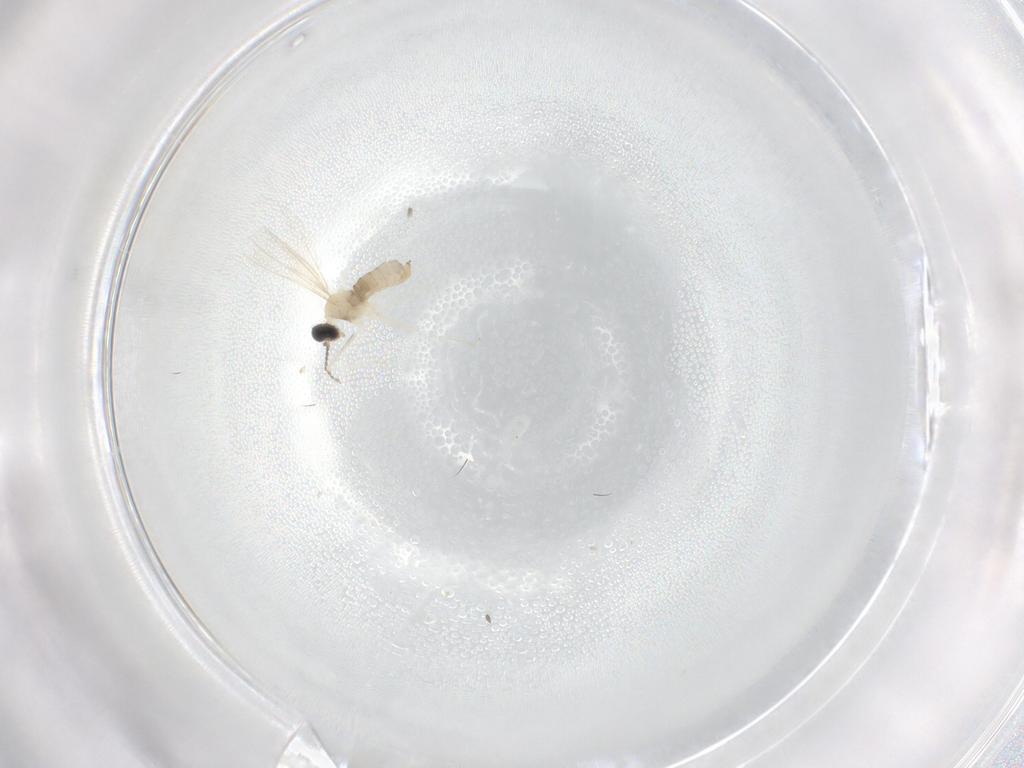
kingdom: Animalia
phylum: Arthropoda
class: Insecta
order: Diptera
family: Cecidomyiidae
